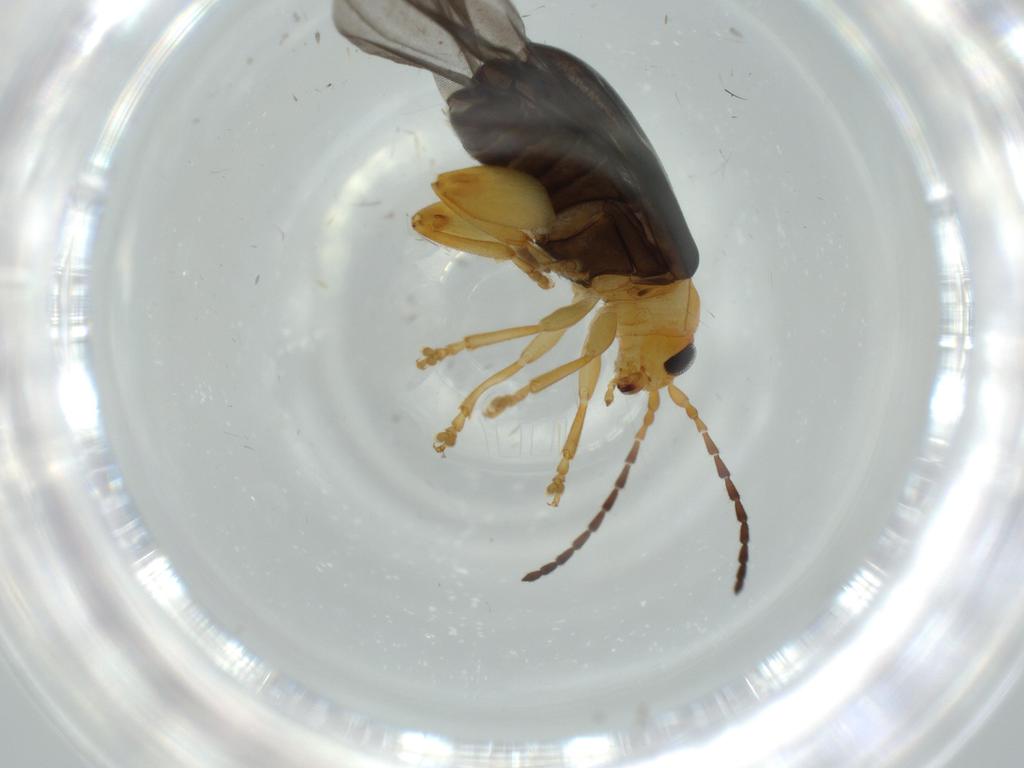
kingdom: Animalia
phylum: Arthropoda
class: Insecta
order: Coleoptera
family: Chrysomelidae
